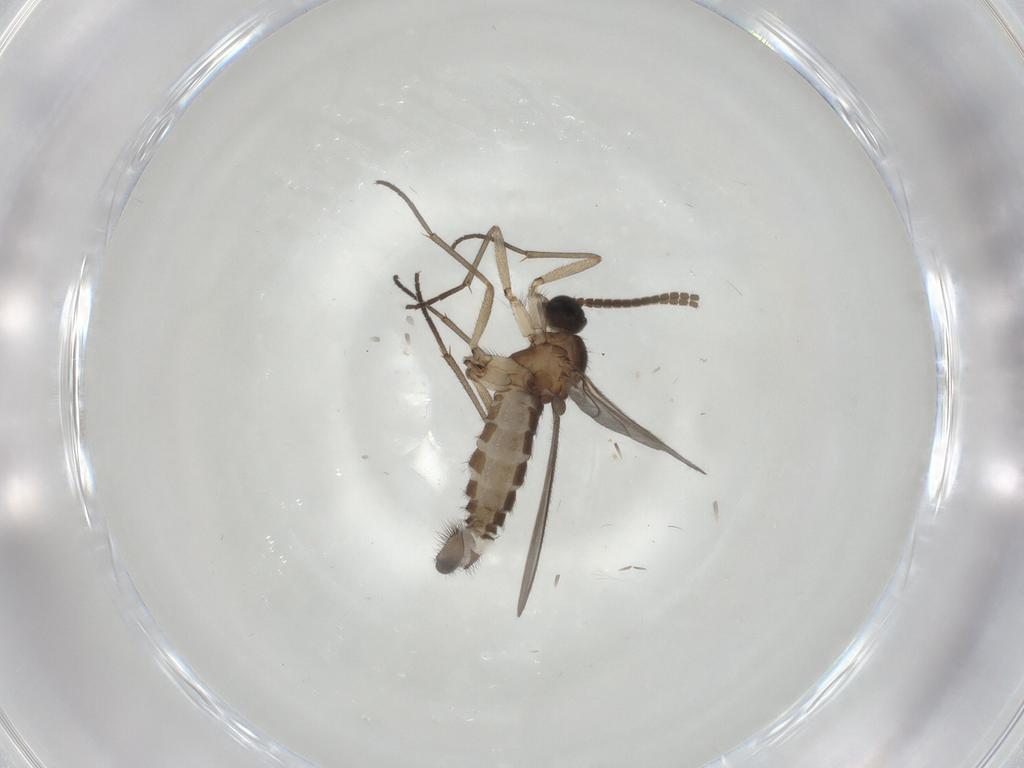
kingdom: Animalia
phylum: Arthropoda
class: Insecta
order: Diptera
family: Sciaridae
